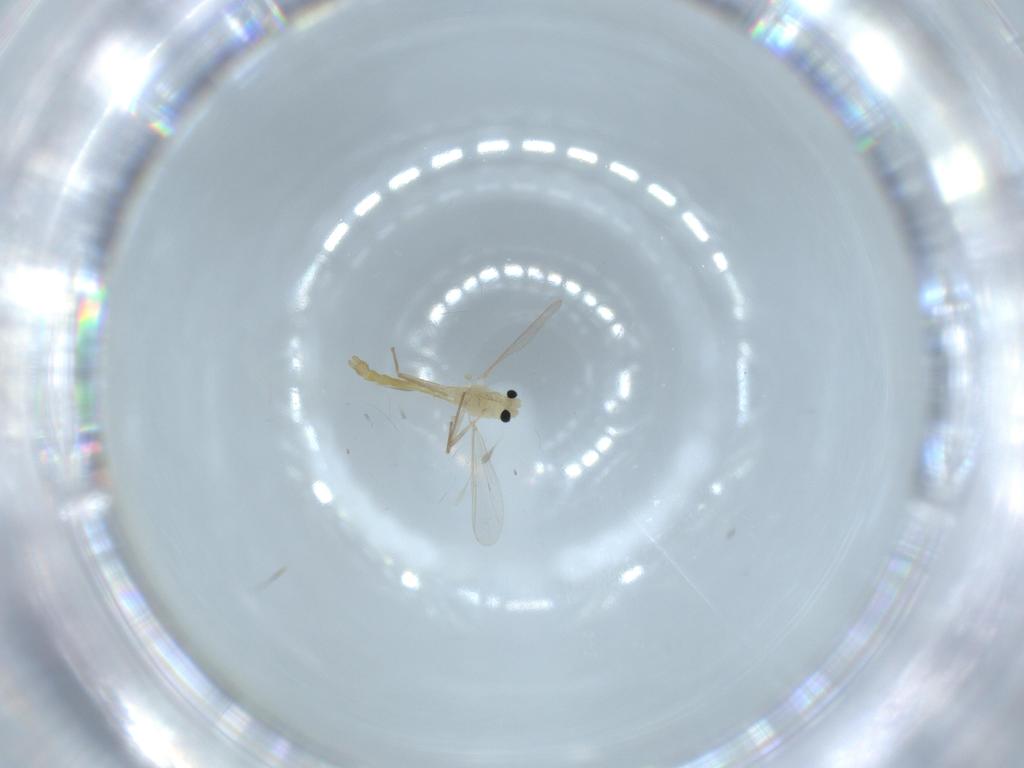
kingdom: Animalia
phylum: Arthropoda
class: Insecta
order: Diptera
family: Chironomidae
